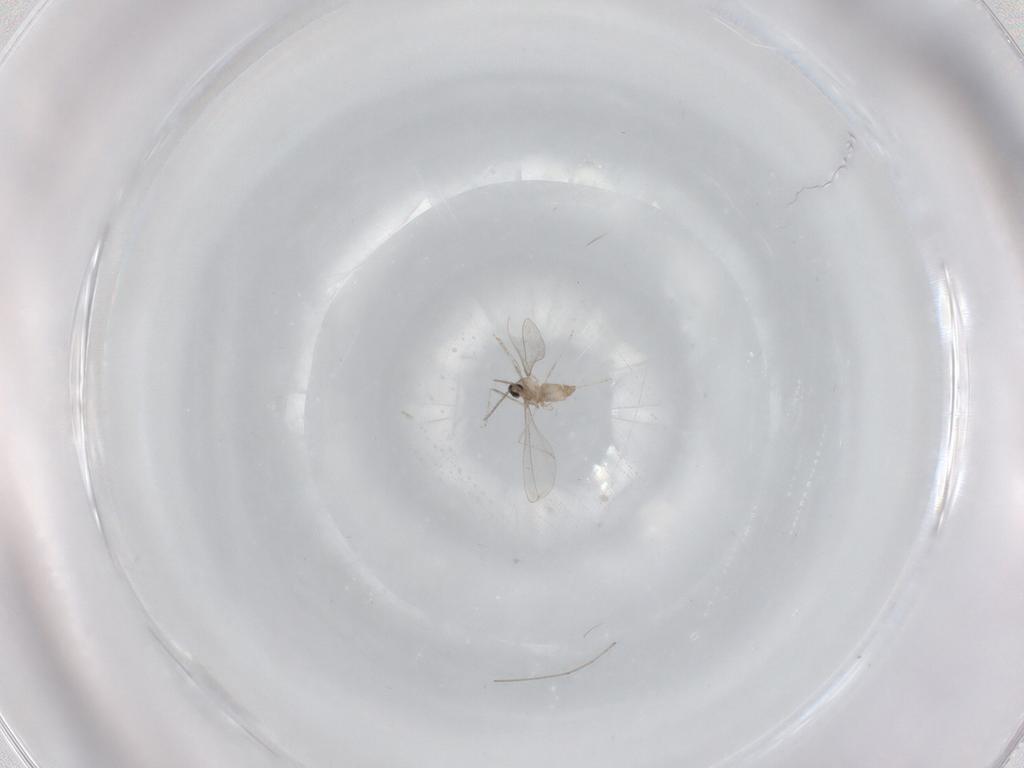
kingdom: Animalia
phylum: Arthropoda
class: Insecta
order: Diptera
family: Cecidomyiidae
